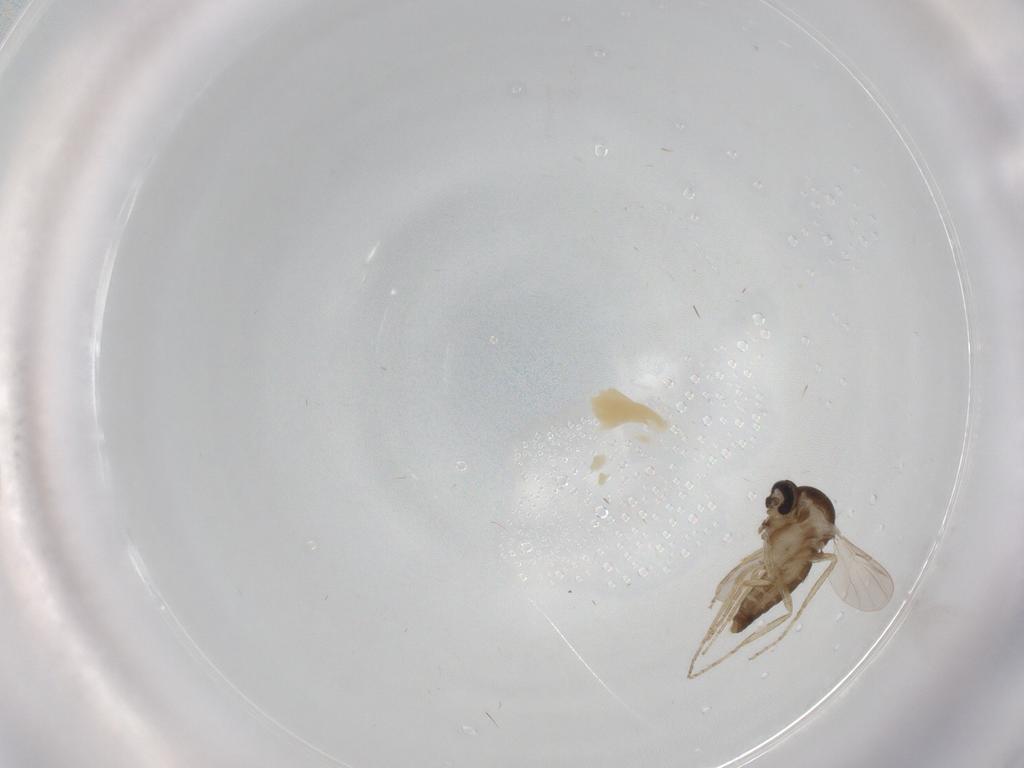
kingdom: Animalia
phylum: Arthropoda
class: Insecta
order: Diptera
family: Ceratopogonidae
